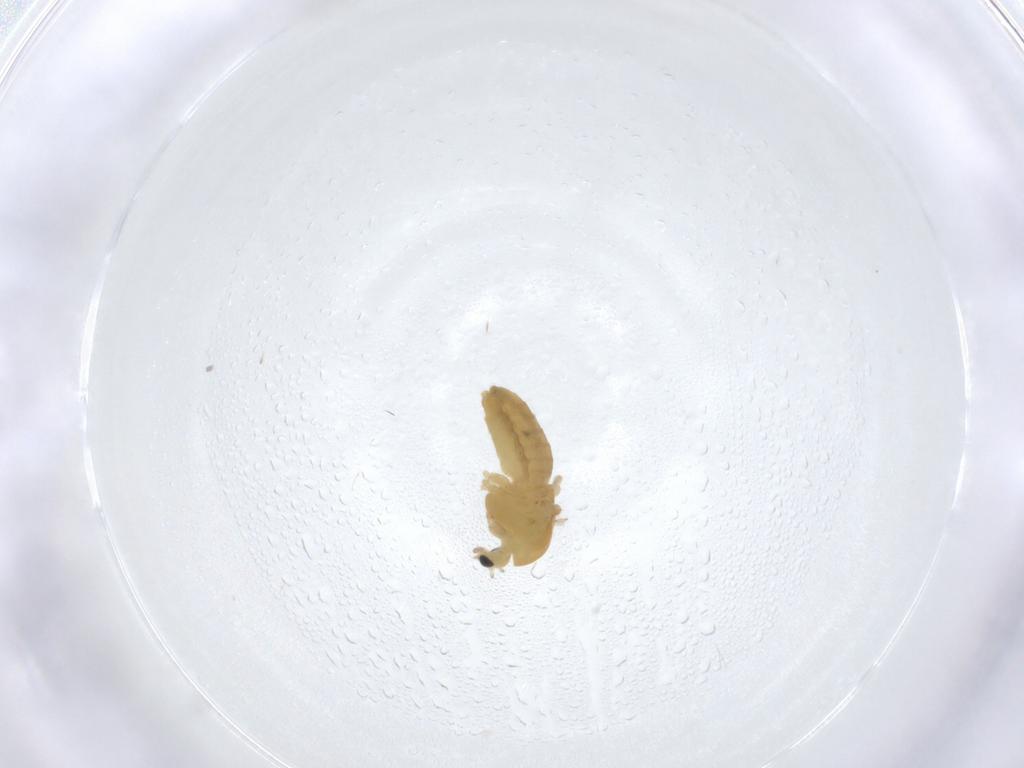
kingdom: Animalia
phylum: Arthropoda
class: Insecta
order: Diptera
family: Chironomidae
